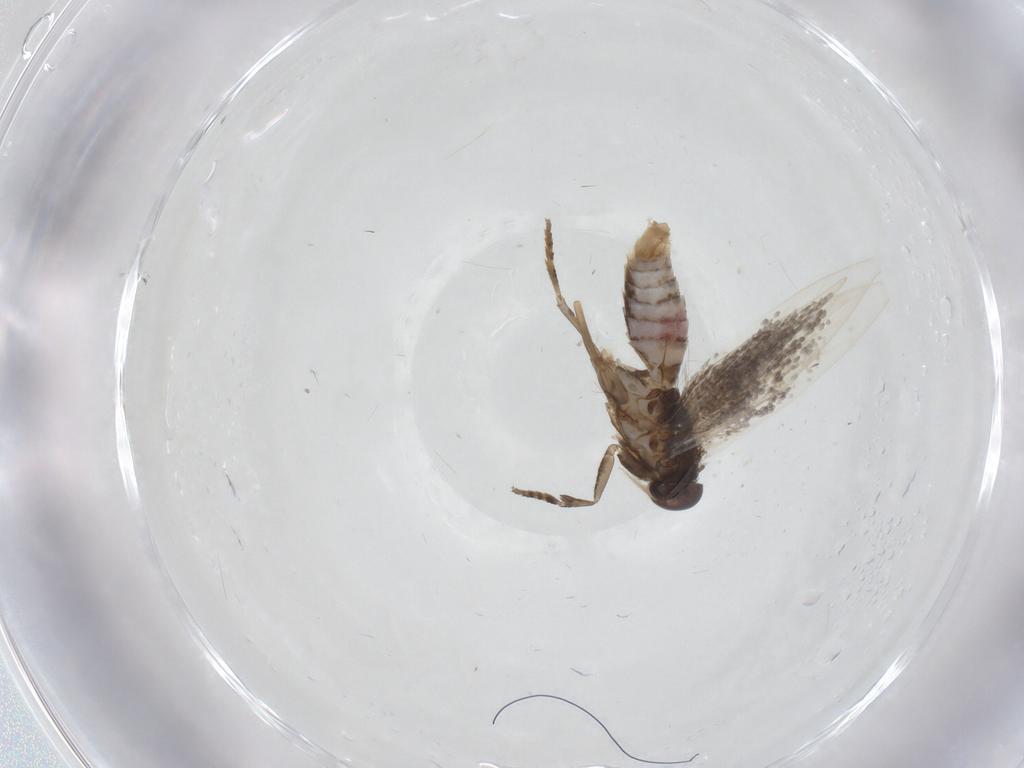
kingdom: Animalia
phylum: Arthropoda
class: Insecta
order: Lepidoptera
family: Elachistidae
